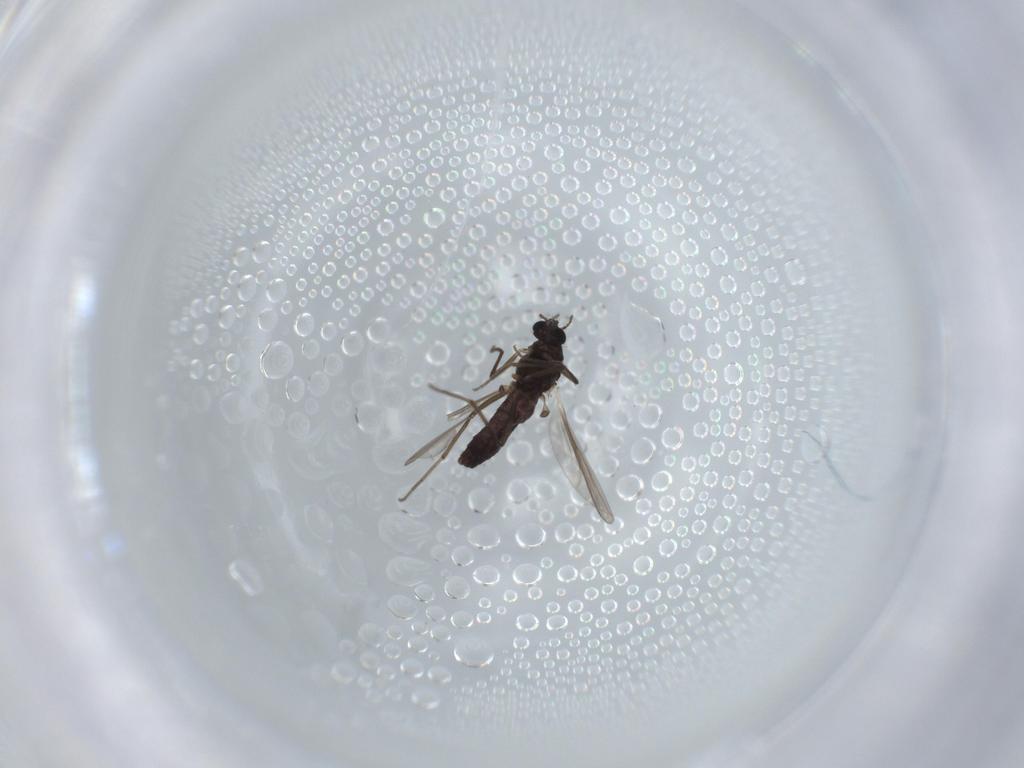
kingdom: Animalia
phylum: Arthropoda
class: Insecta
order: Diptera
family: Chironomidae
